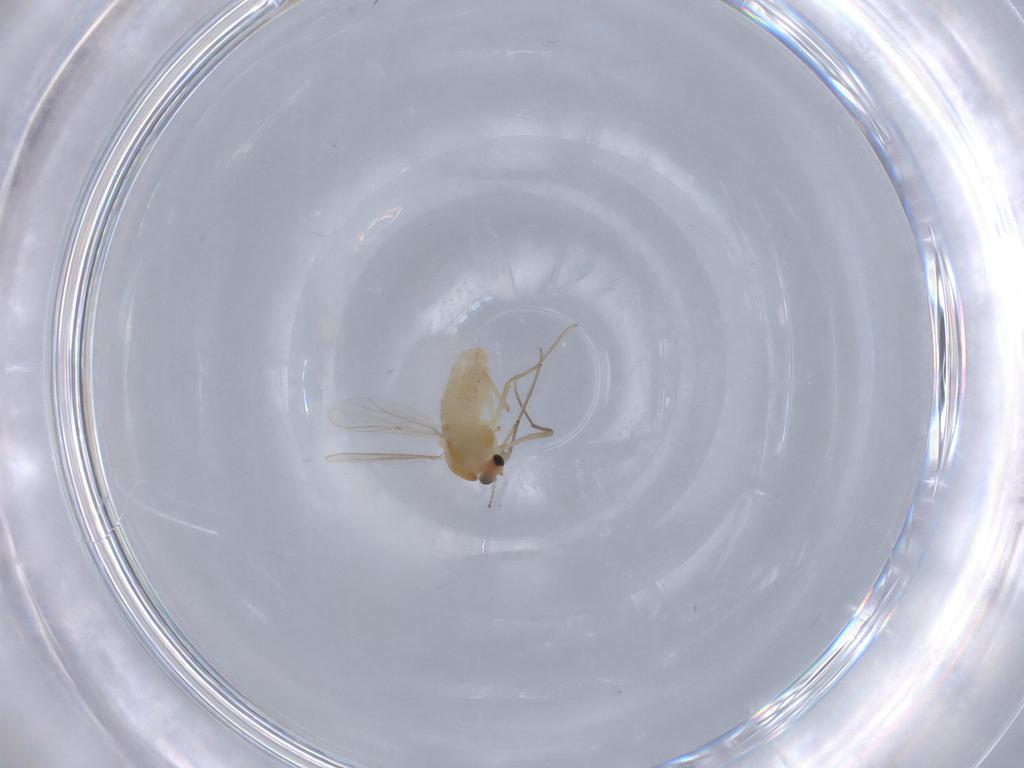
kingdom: Animalia
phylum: Arthropoda
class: Insecta
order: Diptera
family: Chironomidae
